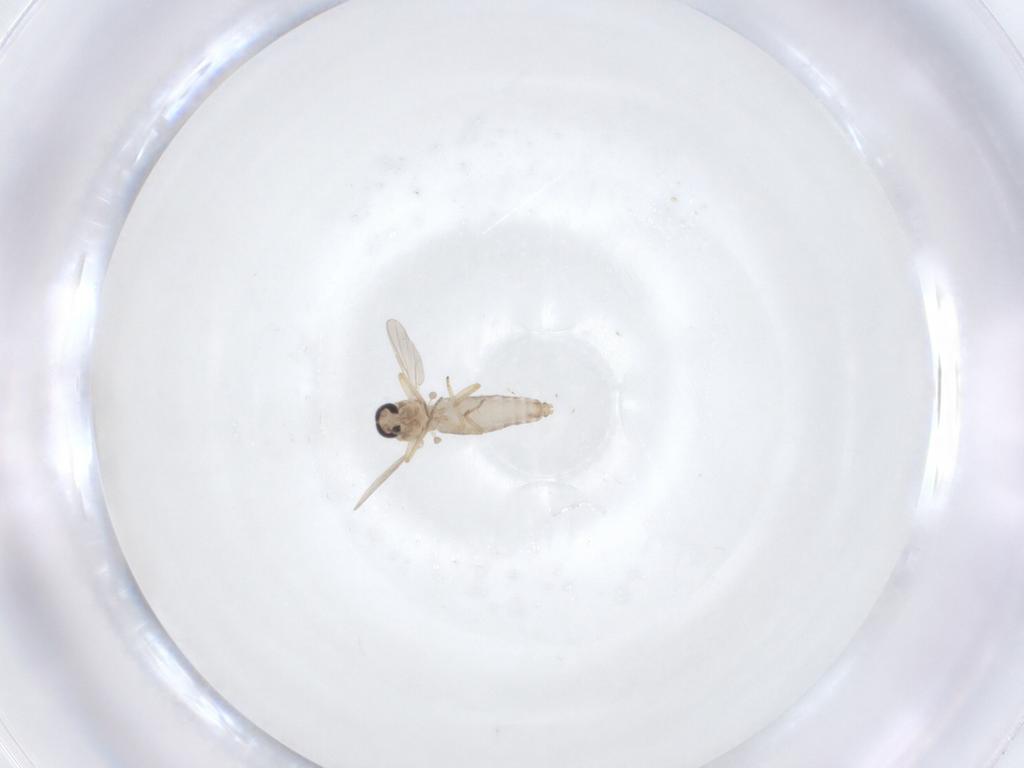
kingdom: Animalia
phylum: Arthropoda
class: Insecta
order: Diptera
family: Ceratopogonidae
